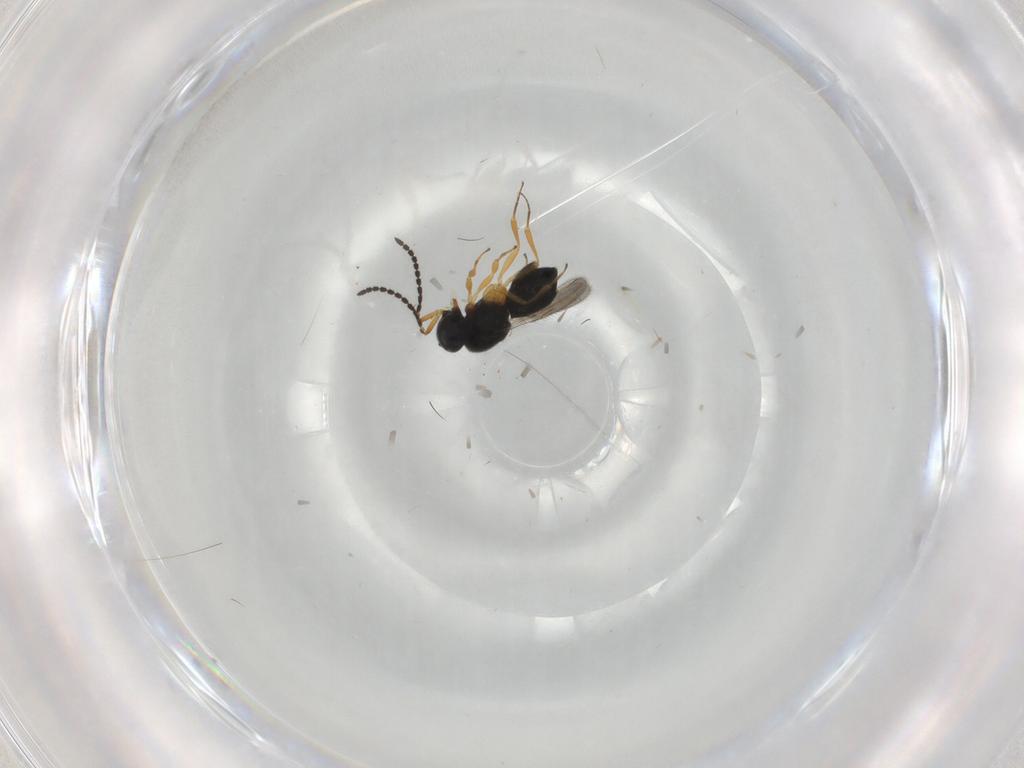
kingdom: Animalia
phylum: Arthropoda
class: Insecta
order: Hymenoptera
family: Scelionidae
